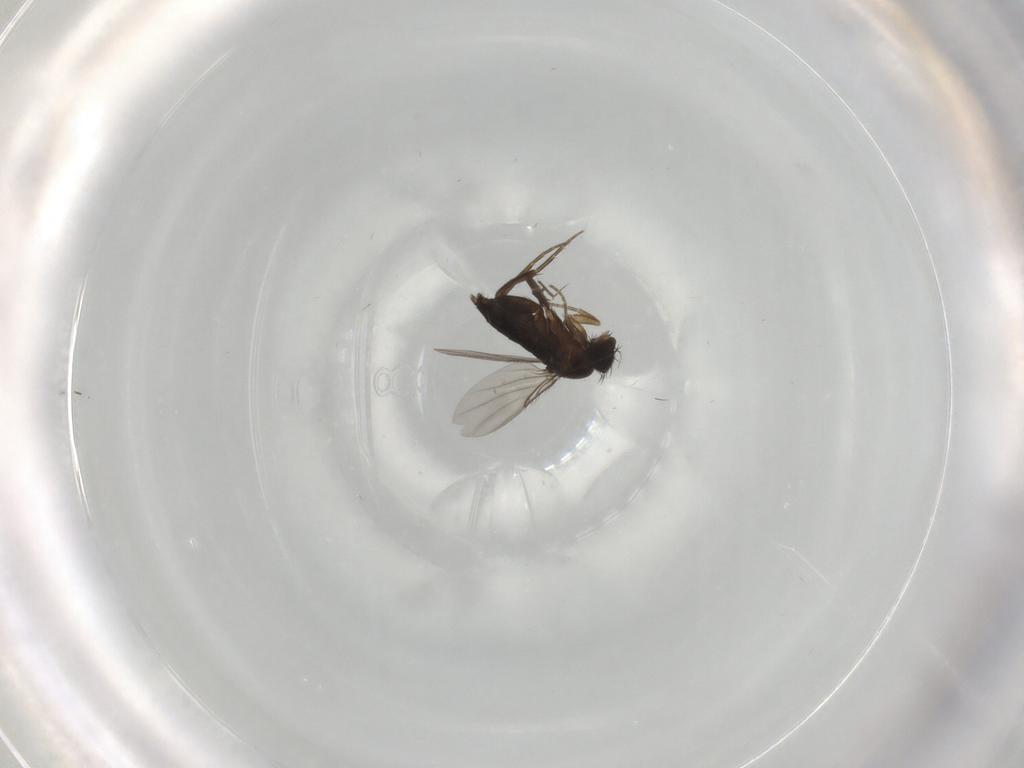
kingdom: Animalia
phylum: Arthropoda
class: Insecta
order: Diptera
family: Phoridae
